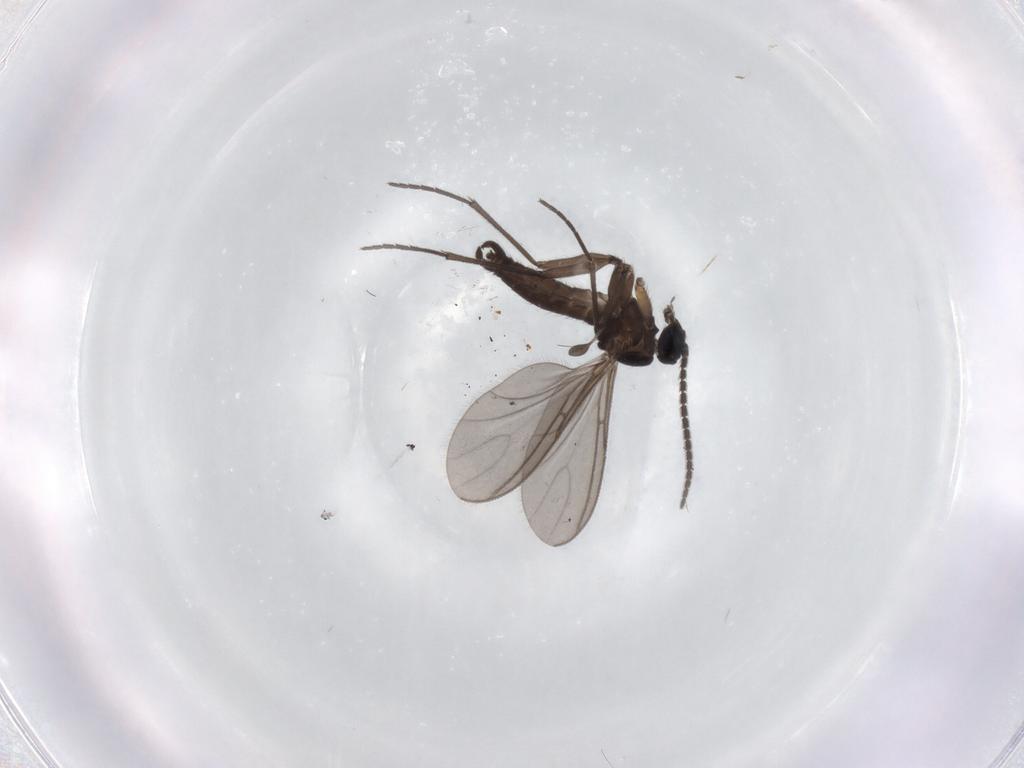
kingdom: Animalia
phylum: Arthropoda
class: Insecta
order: Diptera
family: Sciaridae
